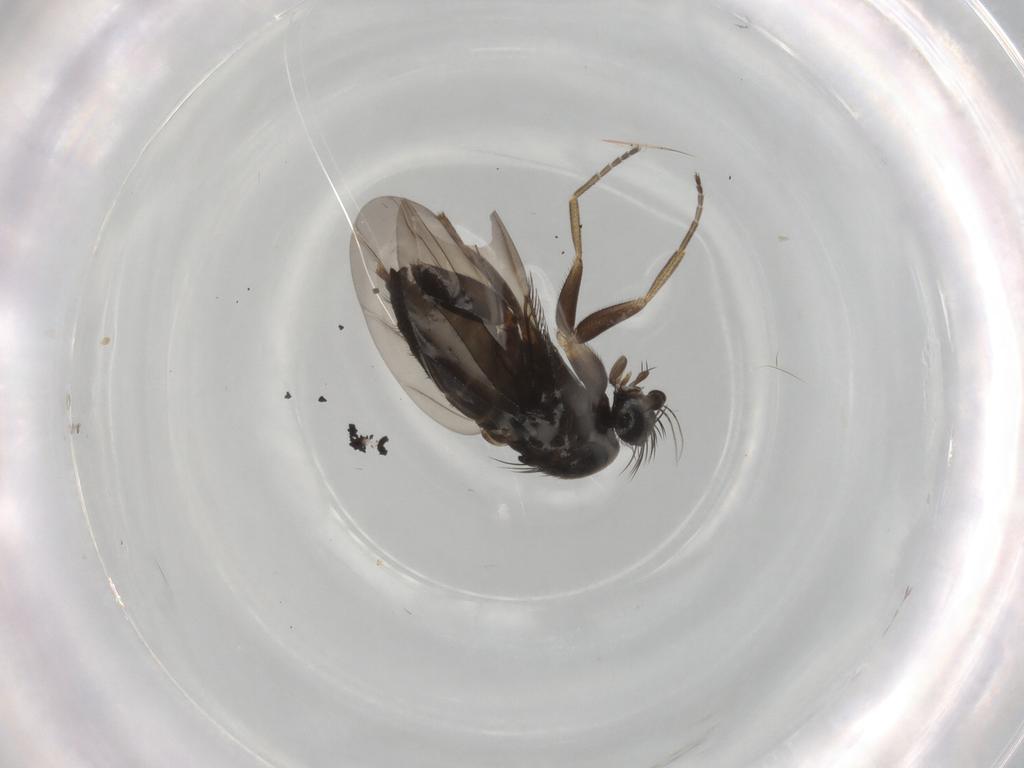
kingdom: Animalia
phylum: Arthropoda
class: Insecta
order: Diptera
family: Phoridae
